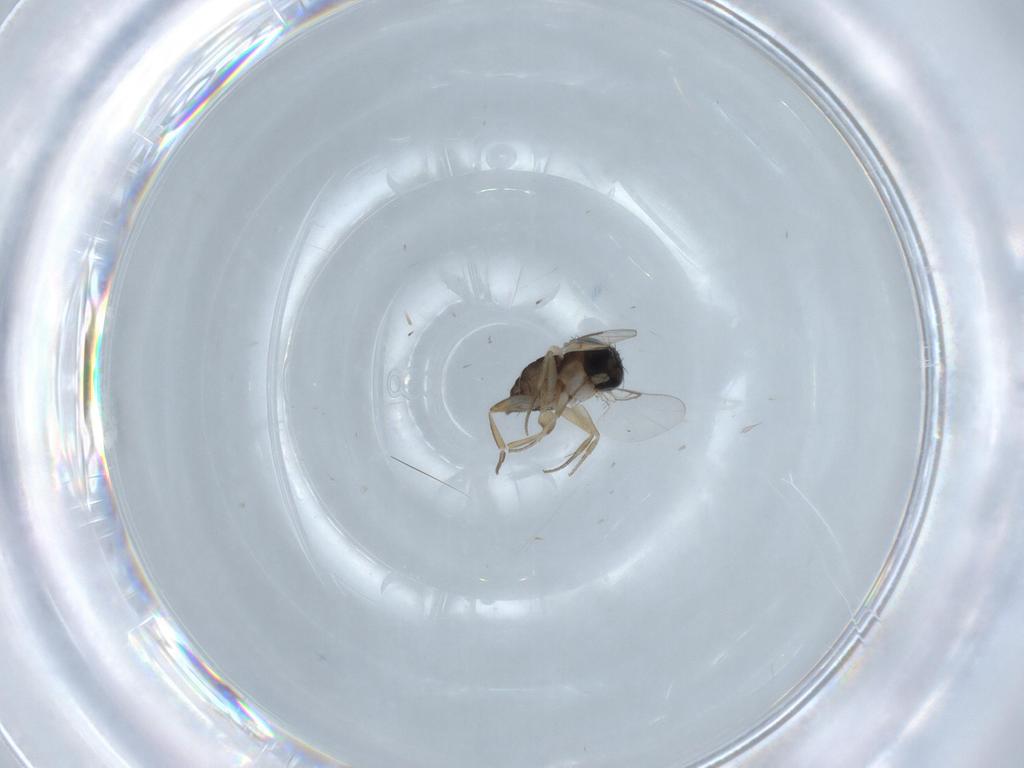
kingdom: Animalia
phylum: Arthropoda
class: Insecta
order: Diptera
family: Phoridae
